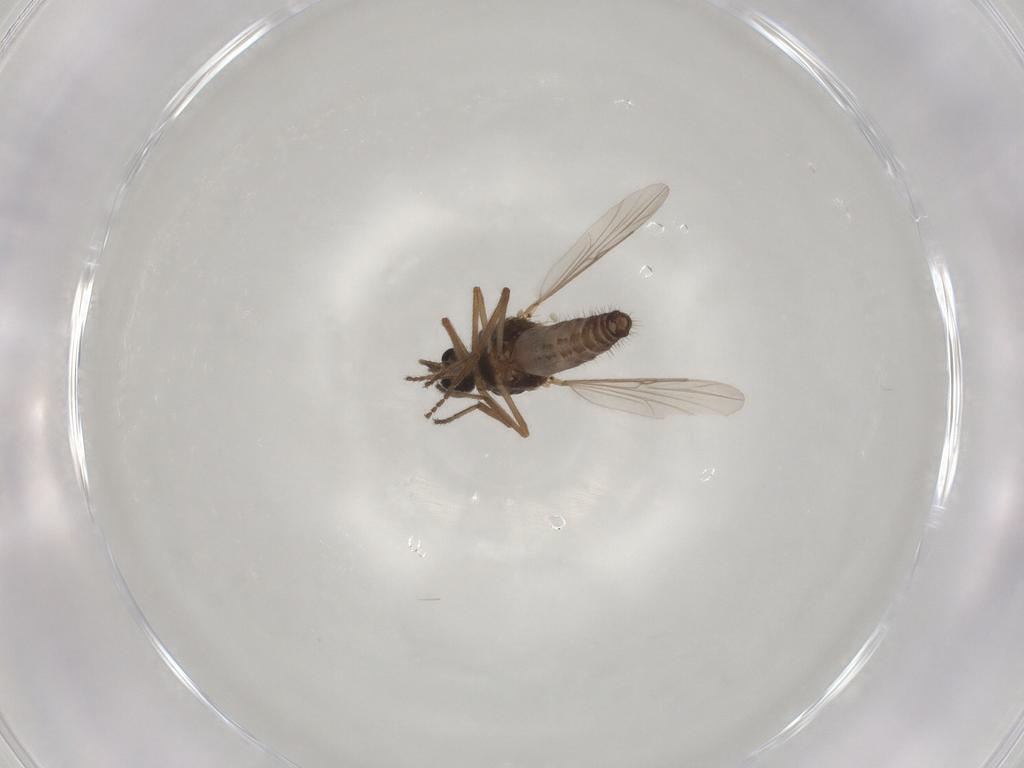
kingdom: Animalia
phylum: Arthropoda
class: Insecta
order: Diptera
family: Ceratopogonidae
